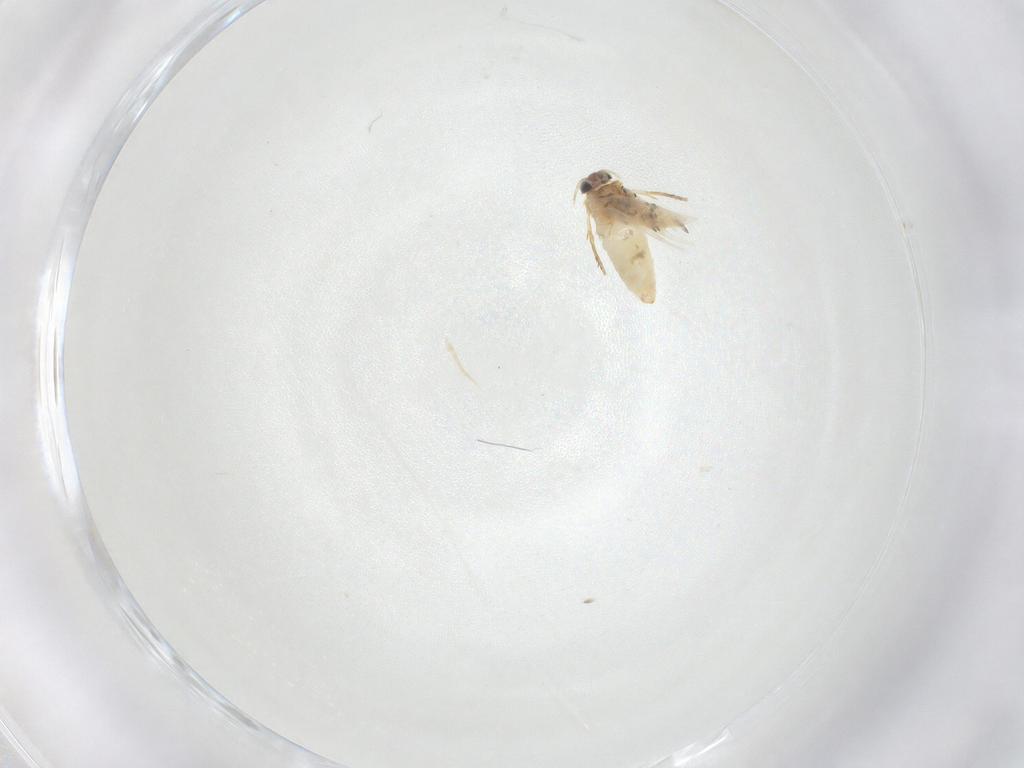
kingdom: Animalia
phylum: Arthropoda
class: Insecta
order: Lepidoptera
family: Crambidae
